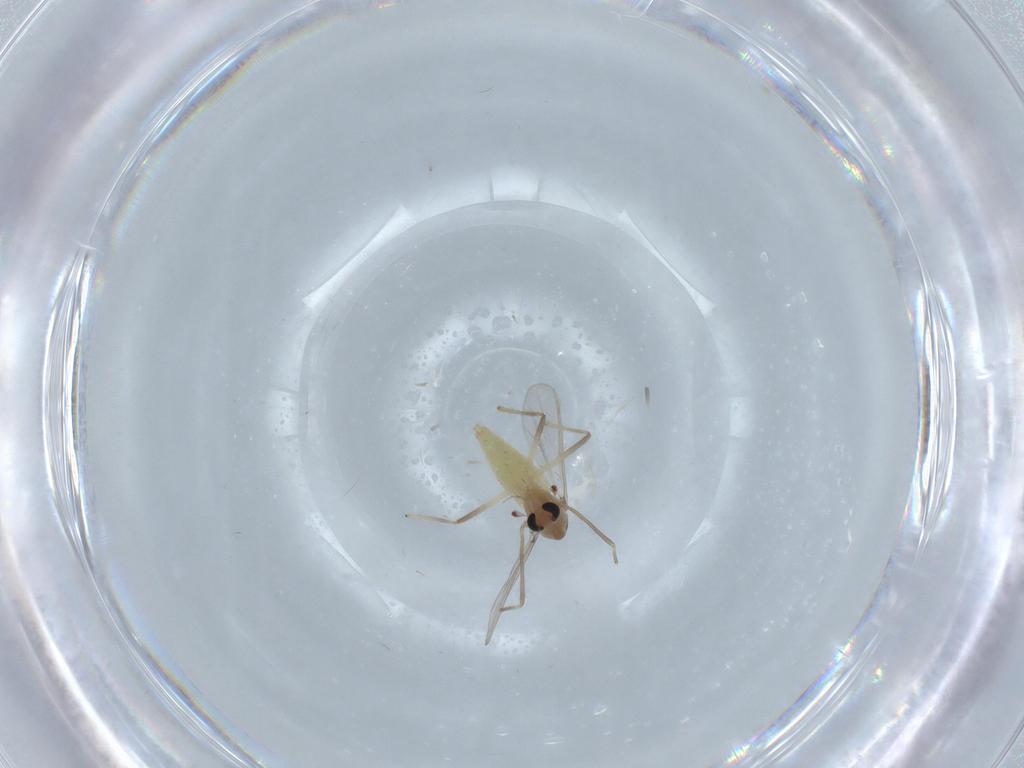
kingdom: Animalia
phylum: Arthropoda
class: Insecta
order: Diptera
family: Chironomidae
